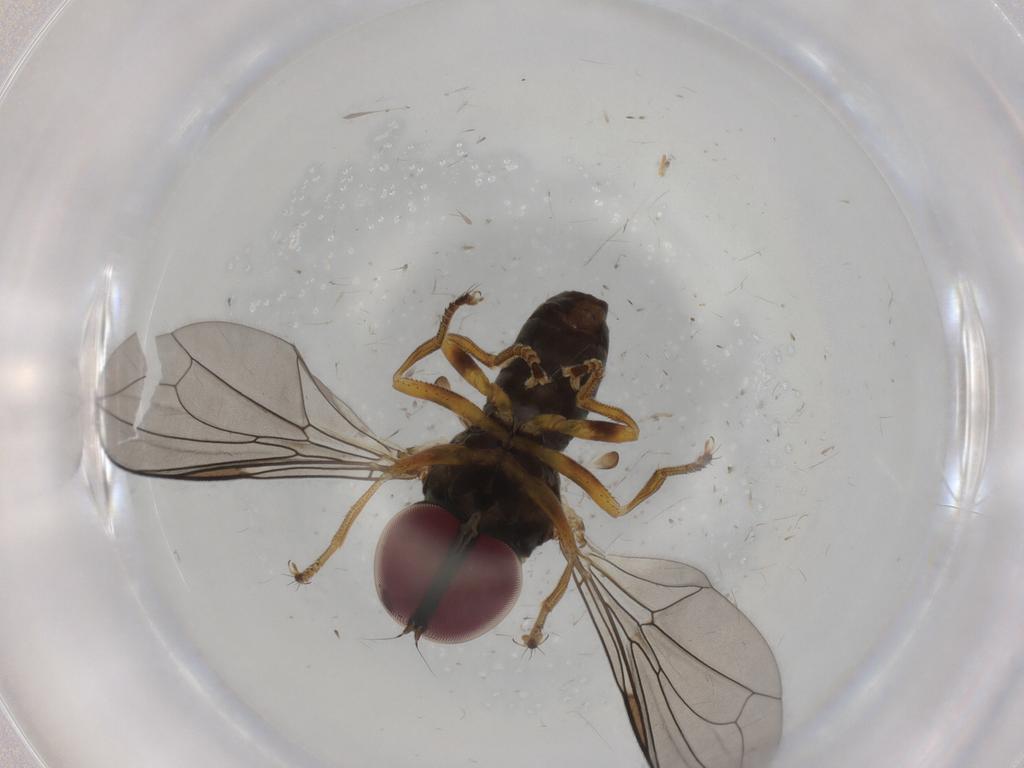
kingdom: Animalia
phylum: Arthropoda
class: Insecta
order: Diptera
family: Pipunculidae
